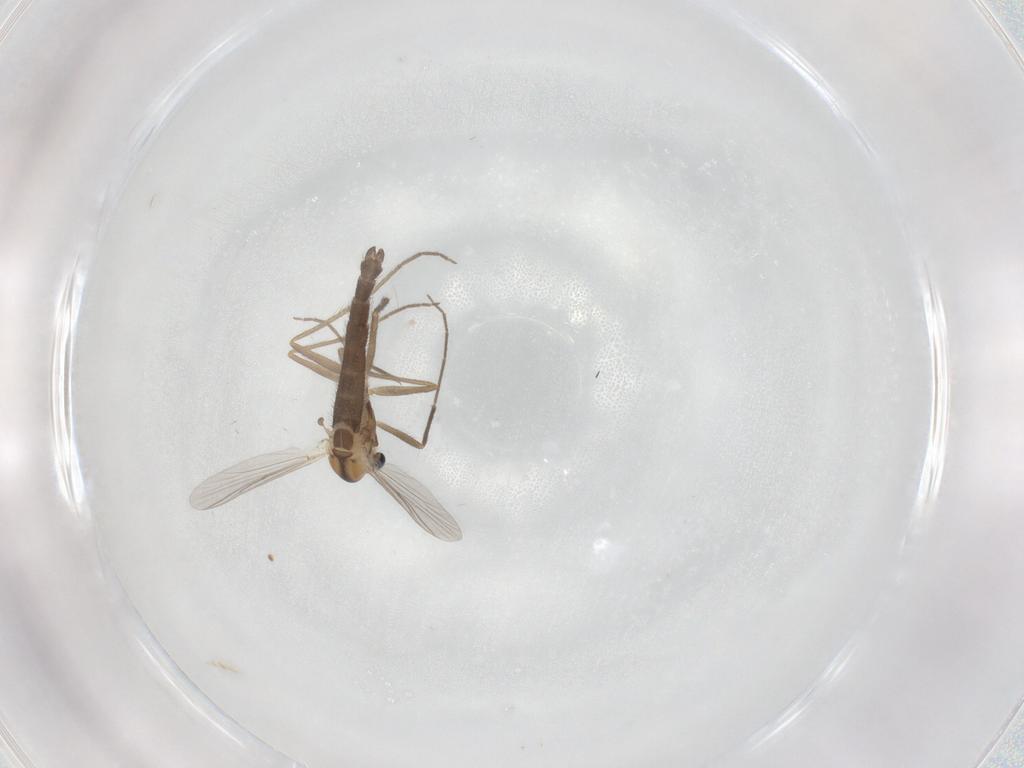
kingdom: Animalia
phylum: Arthropoda
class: Insecta
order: Diptera
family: Chironomidae
